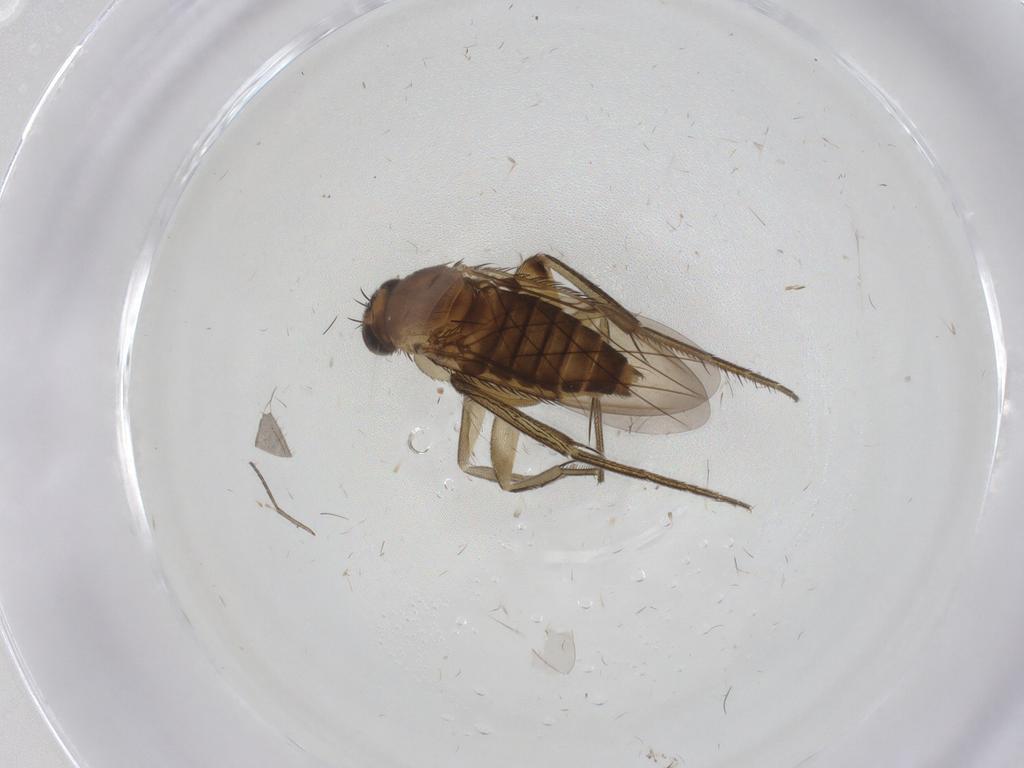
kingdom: Animalia
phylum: Arthropoda
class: Insecta
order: Diptera
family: Phoridae
